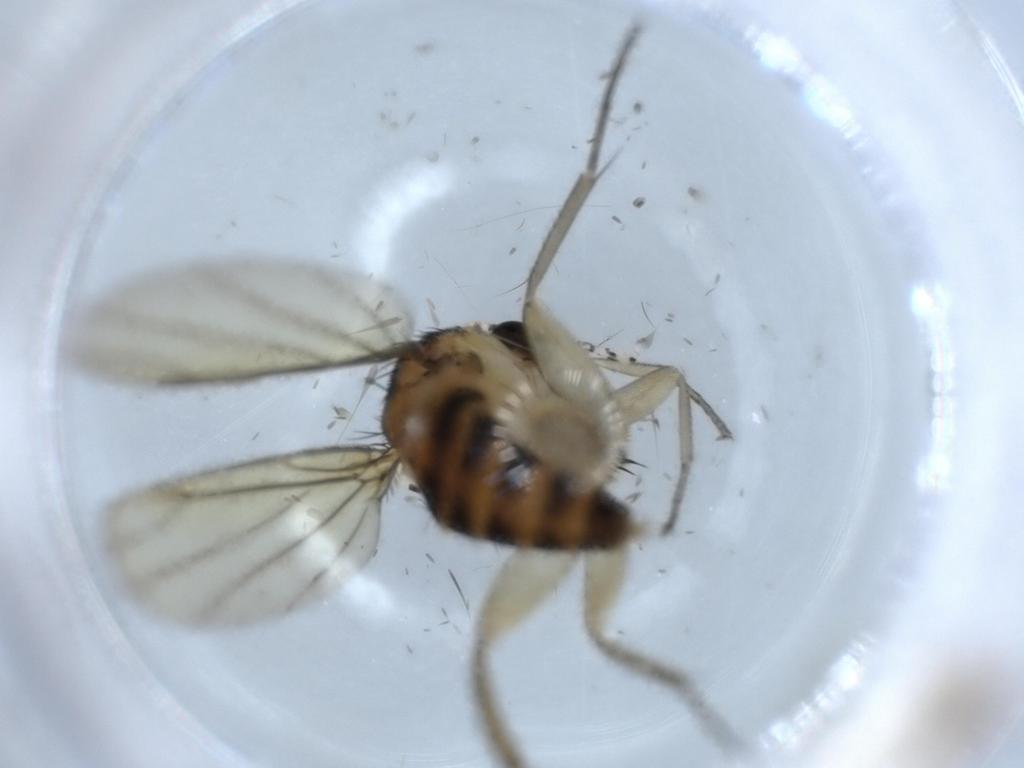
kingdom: Animalia
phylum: Arthropoda
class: Insecta
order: Diptera
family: Chironomidae
